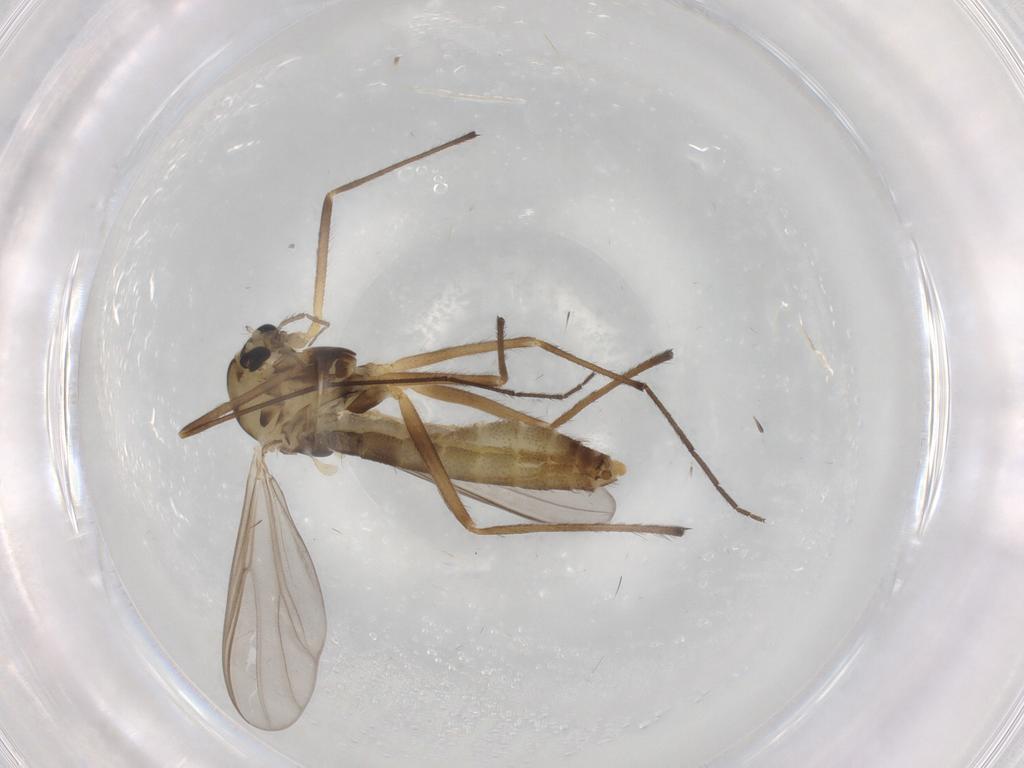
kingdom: Animalia
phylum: Arthropoda
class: Insecta
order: Diptera
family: Chironomidae
